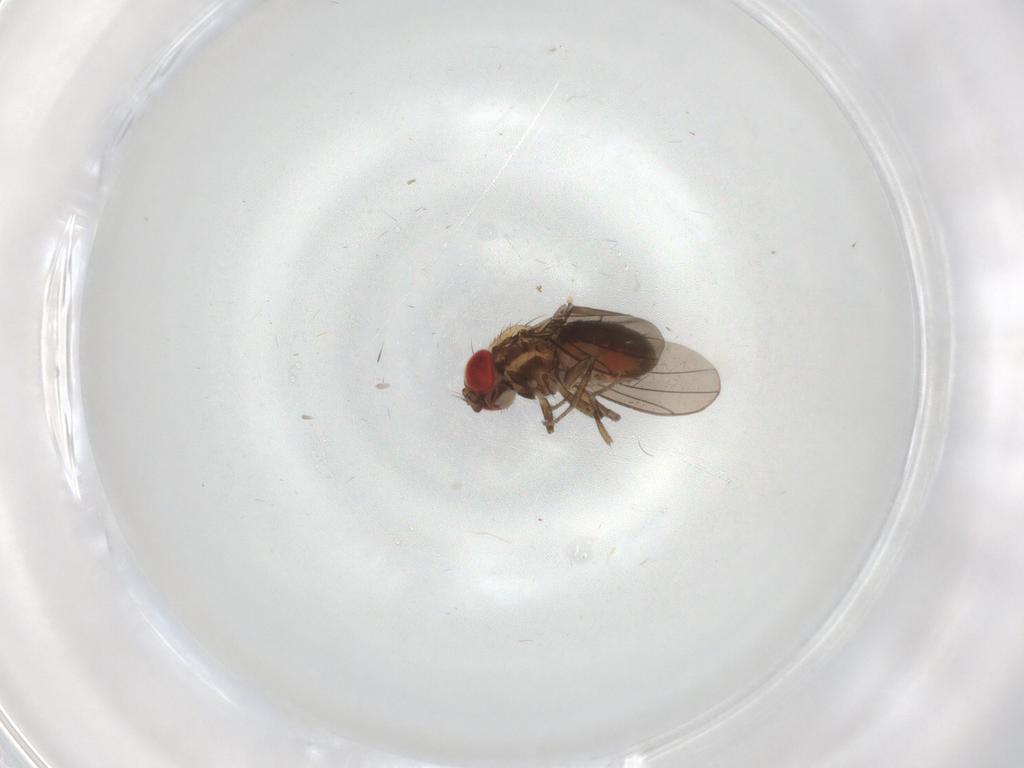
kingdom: Animalia
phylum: Arthropoda
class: Insecta
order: Diptera
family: Drosophilidae
